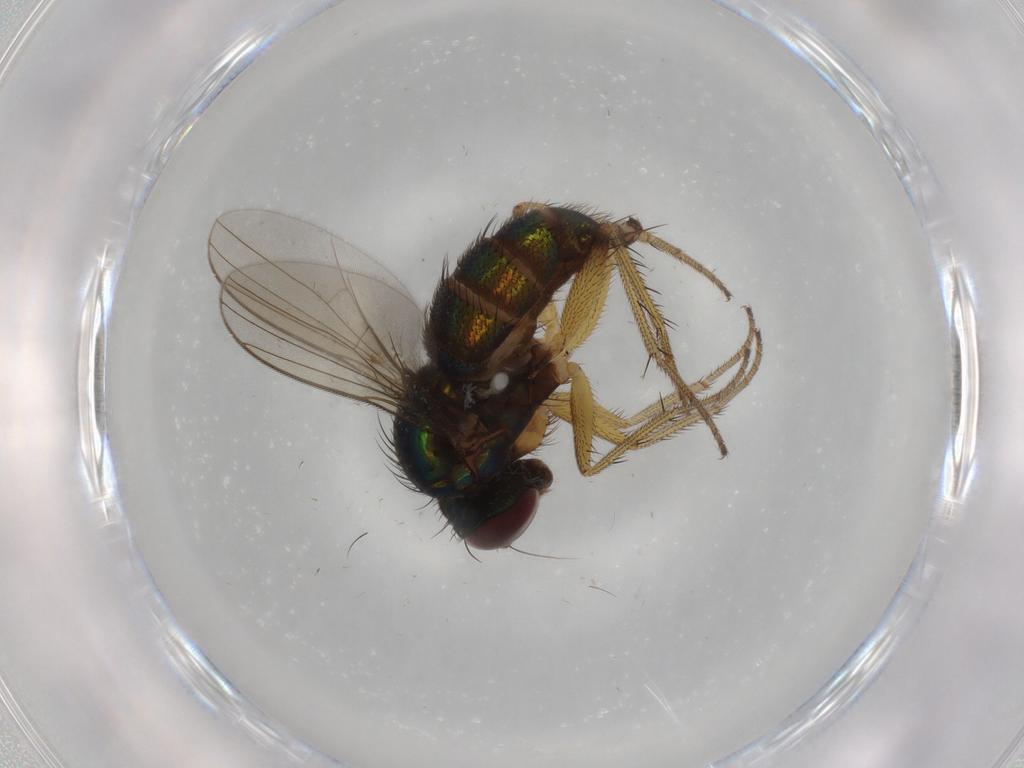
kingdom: Animalia
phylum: Arthropoda
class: Insecta
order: Diptera
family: Dolichopodidae
